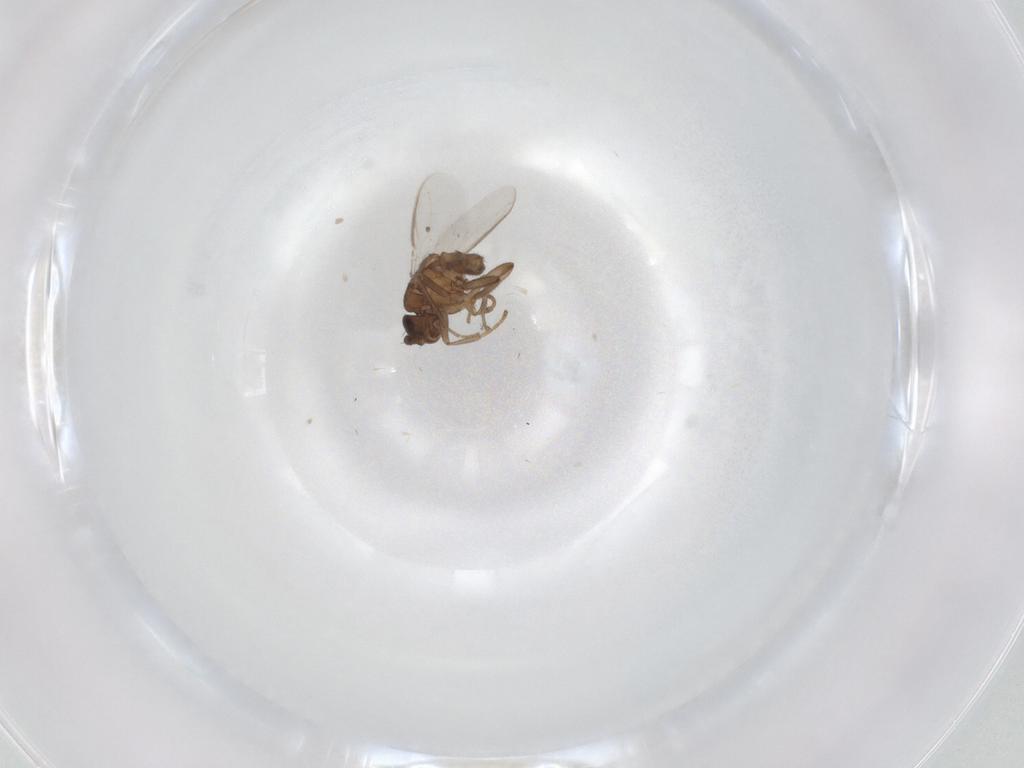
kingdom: Animalia
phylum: Arthropoda
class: Insecta
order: Diptera
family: Sphaeroceridae
